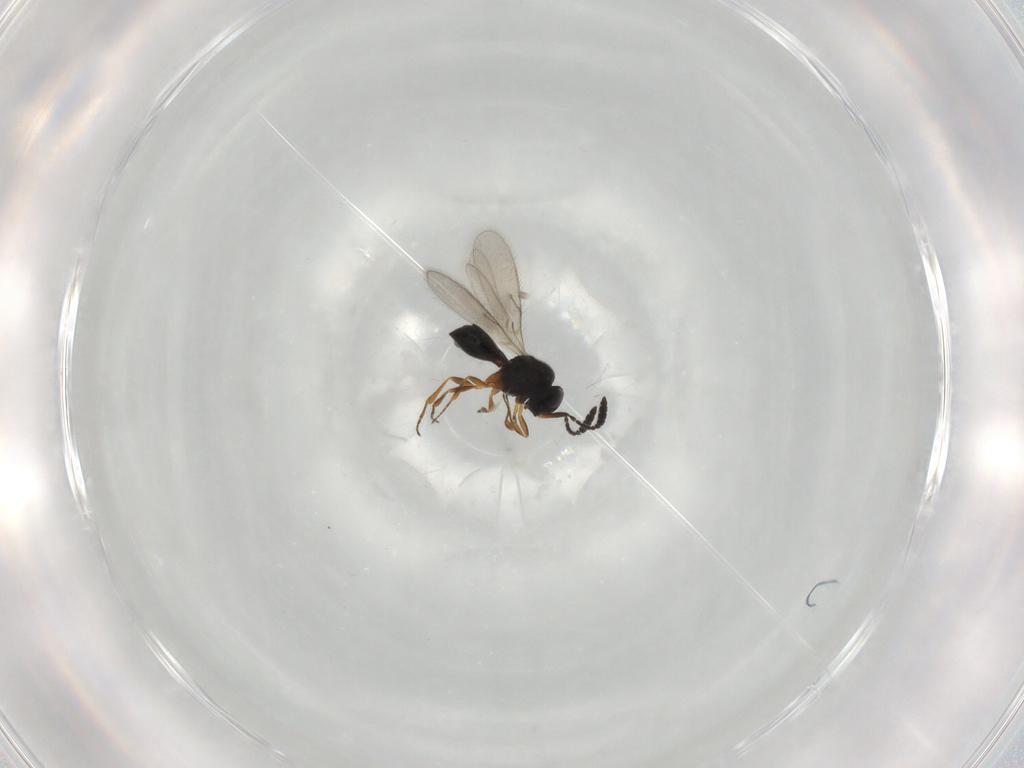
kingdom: Animalia
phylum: Arthropoda
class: Insecta
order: Hymenoptera
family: Scelionidae
